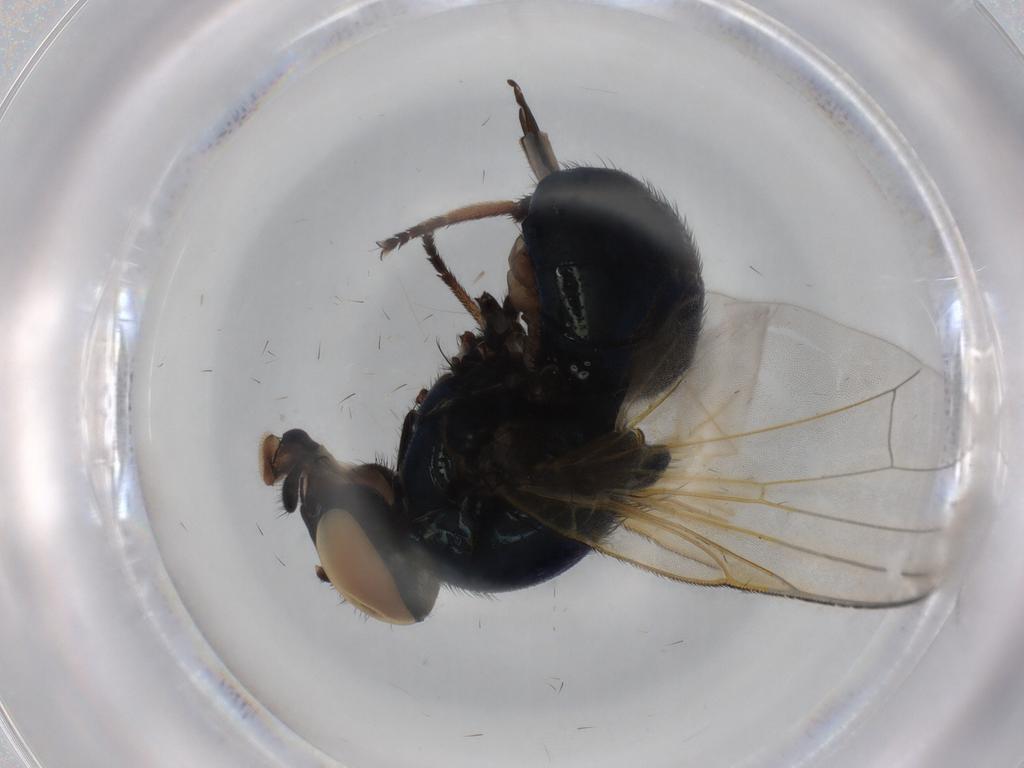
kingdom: Animalia
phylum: Arthropoda
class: Insecta
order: Diptera
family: Lonchaeidae
